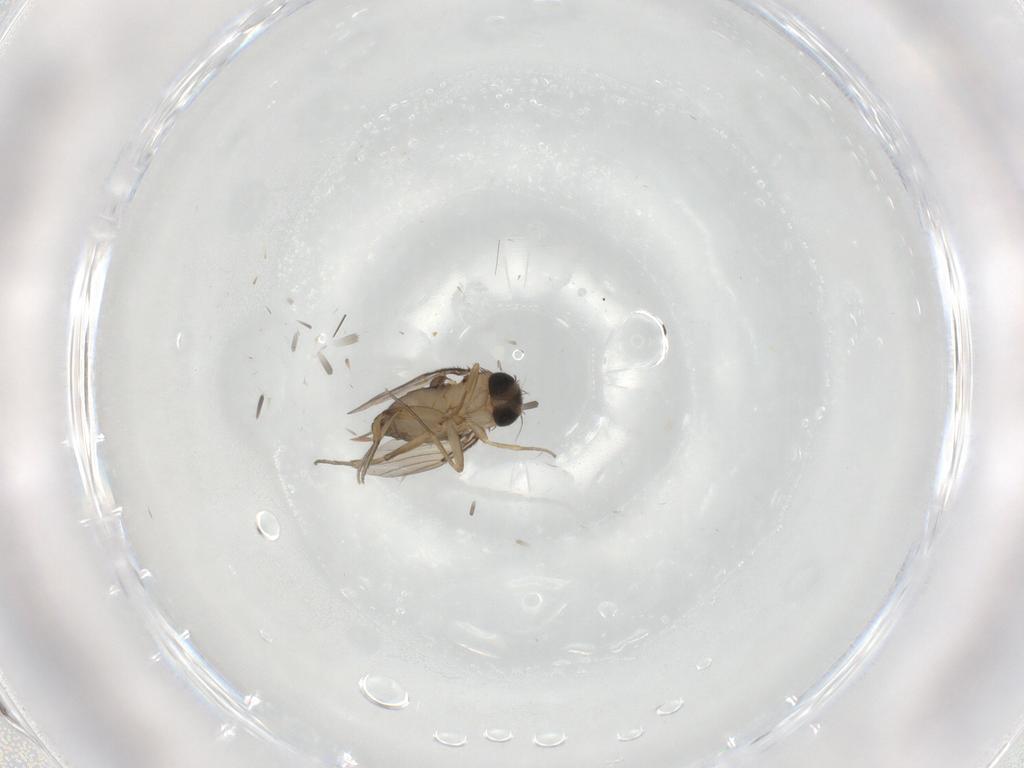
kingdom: Animalia
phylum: Arthropoda
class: Insecta
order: Diptera
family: Phoridae
